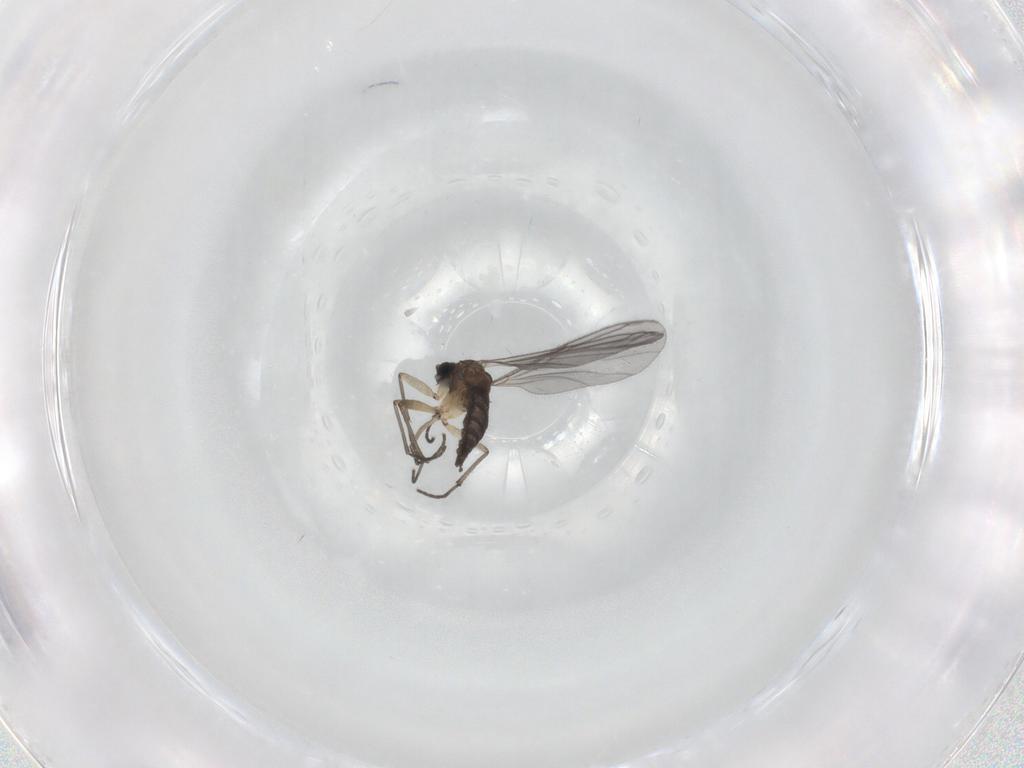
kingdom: Animalia
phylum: Arthropoda
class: Insecta
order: Diptera
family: Sciaridae
